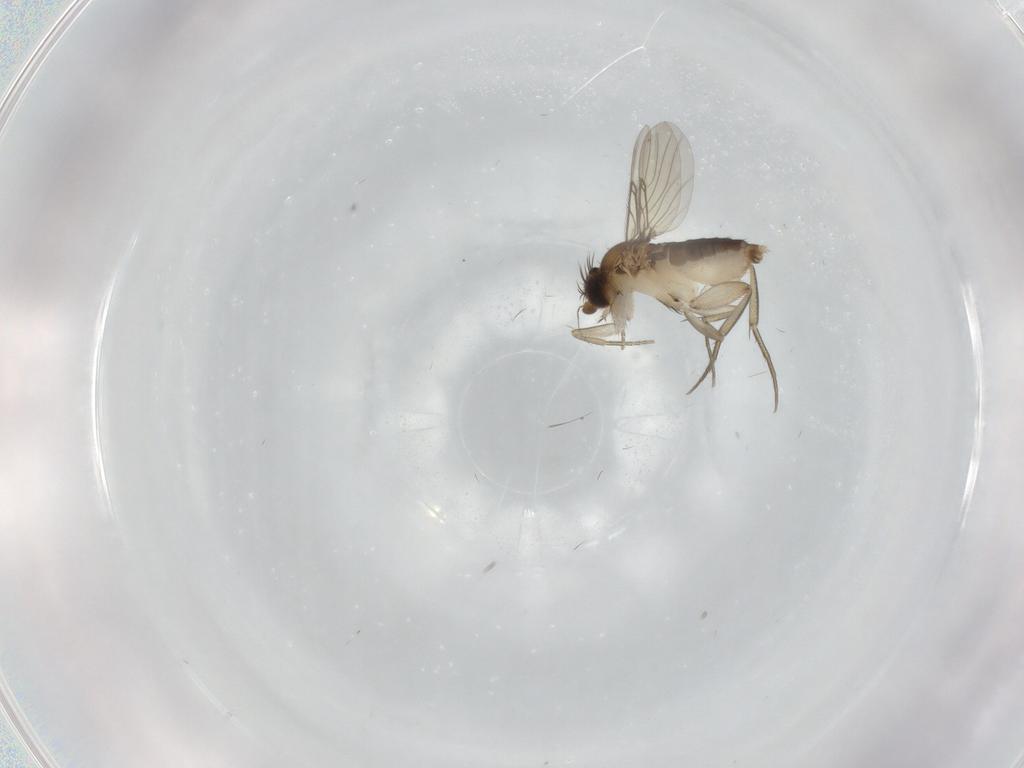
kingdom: Animalia
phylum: Arthropoda
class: Insecta
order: Diptera
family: Phoridae
